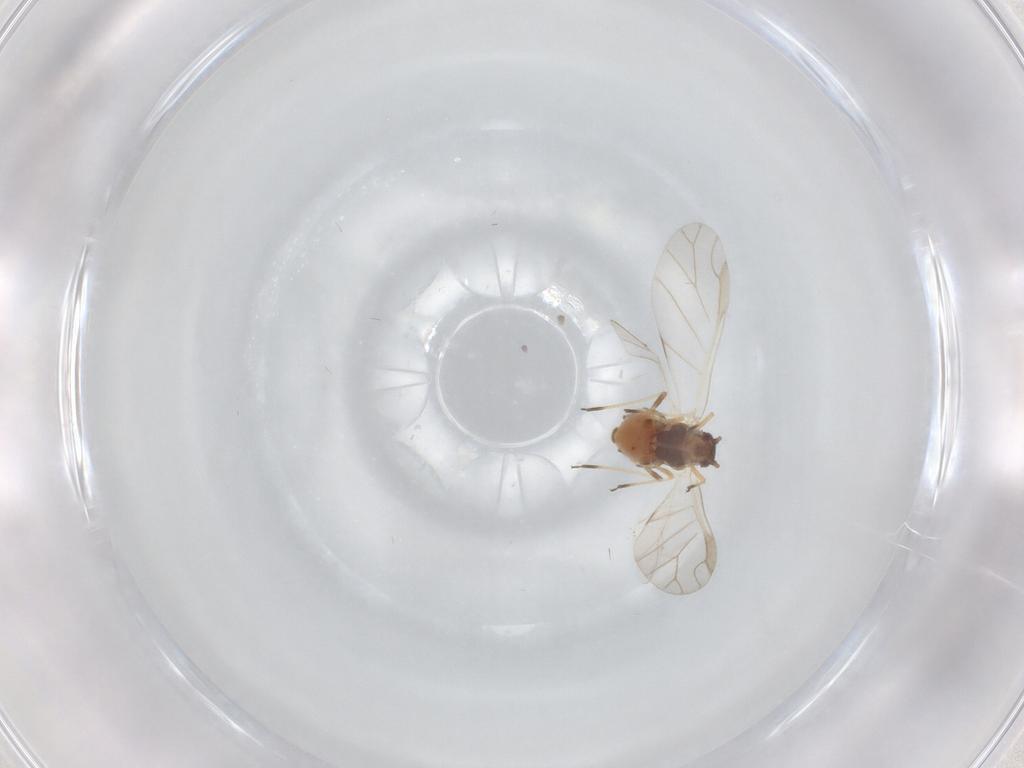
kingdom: Animalia
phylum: Arthropoda
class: Insecta
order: Hemiptera
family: Aphididae
